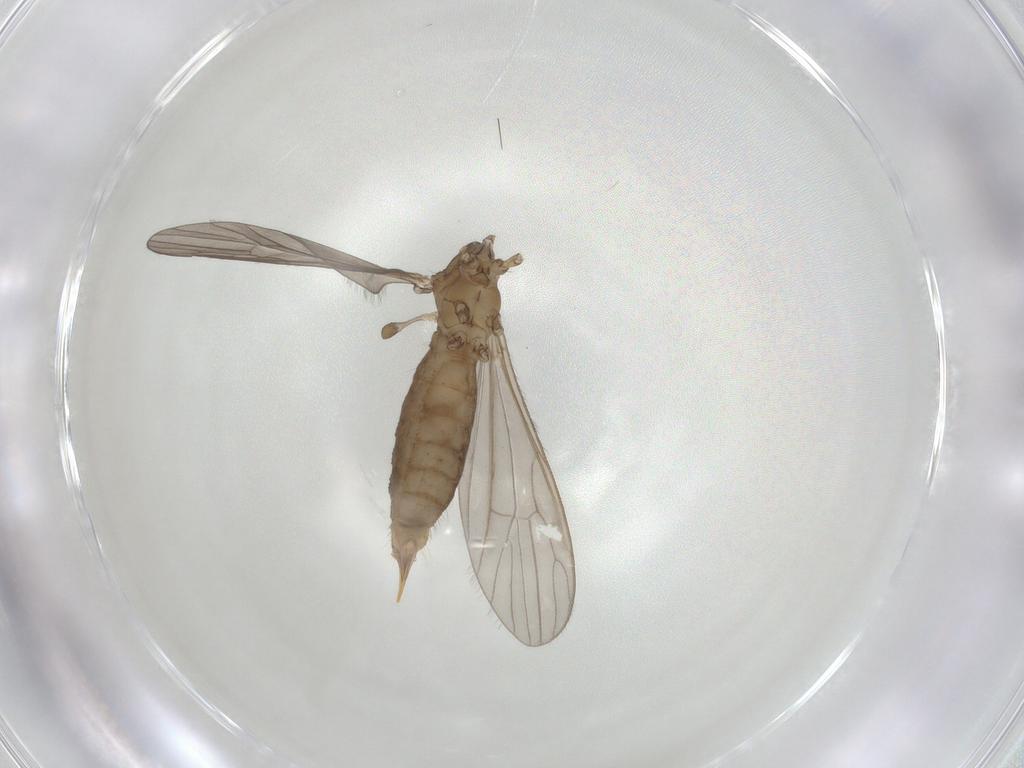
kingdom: Animalia
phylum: Arthropoda
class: Insecta
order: Diptera
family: Limoniidae
